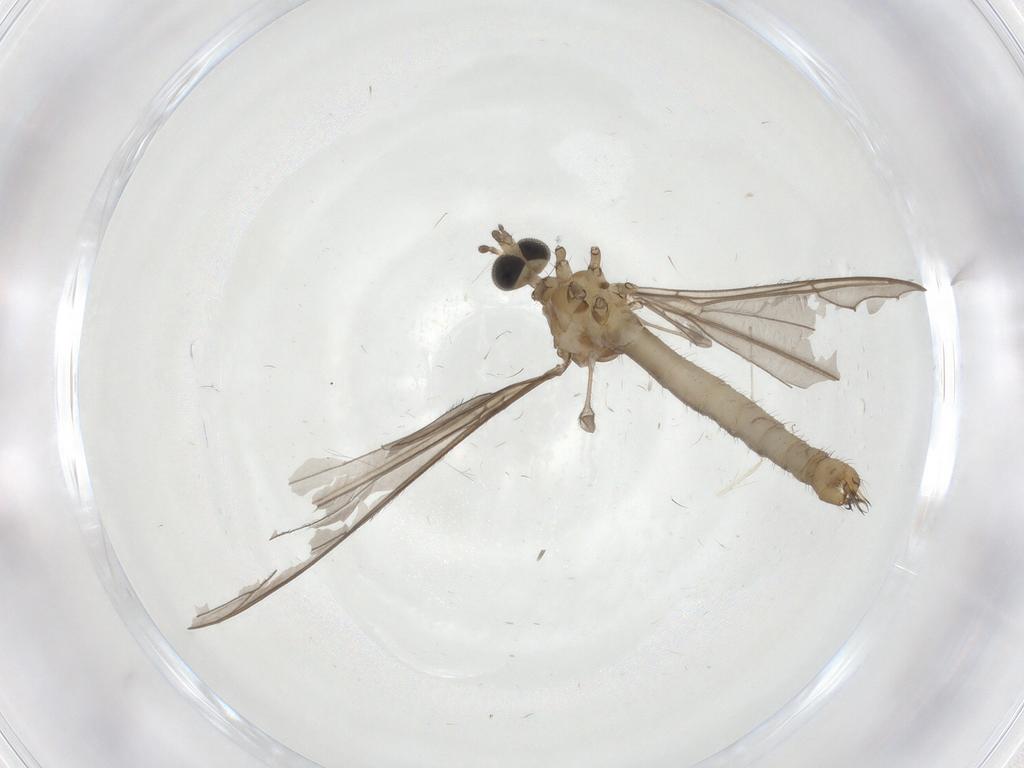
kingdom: Animalia
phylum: Arthropoda
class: Insecta
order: Diptera
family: Limoniidae
